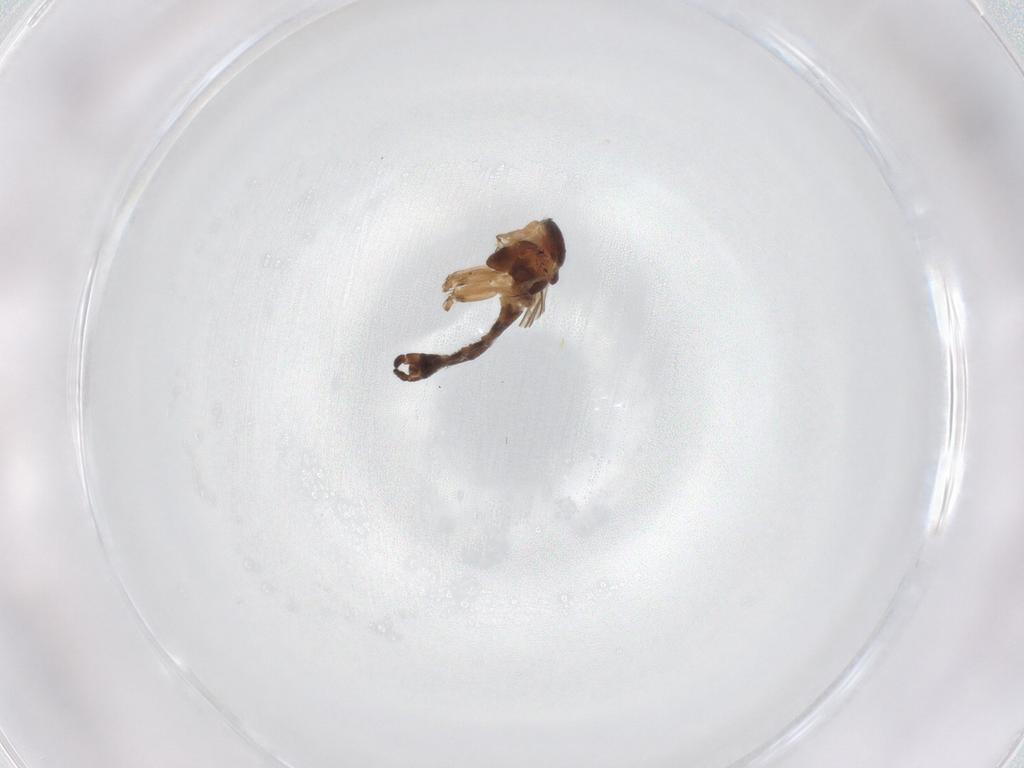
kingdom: Animalia
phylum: Arthropoda
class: Insecta
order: Diptera
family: Sciaridae
